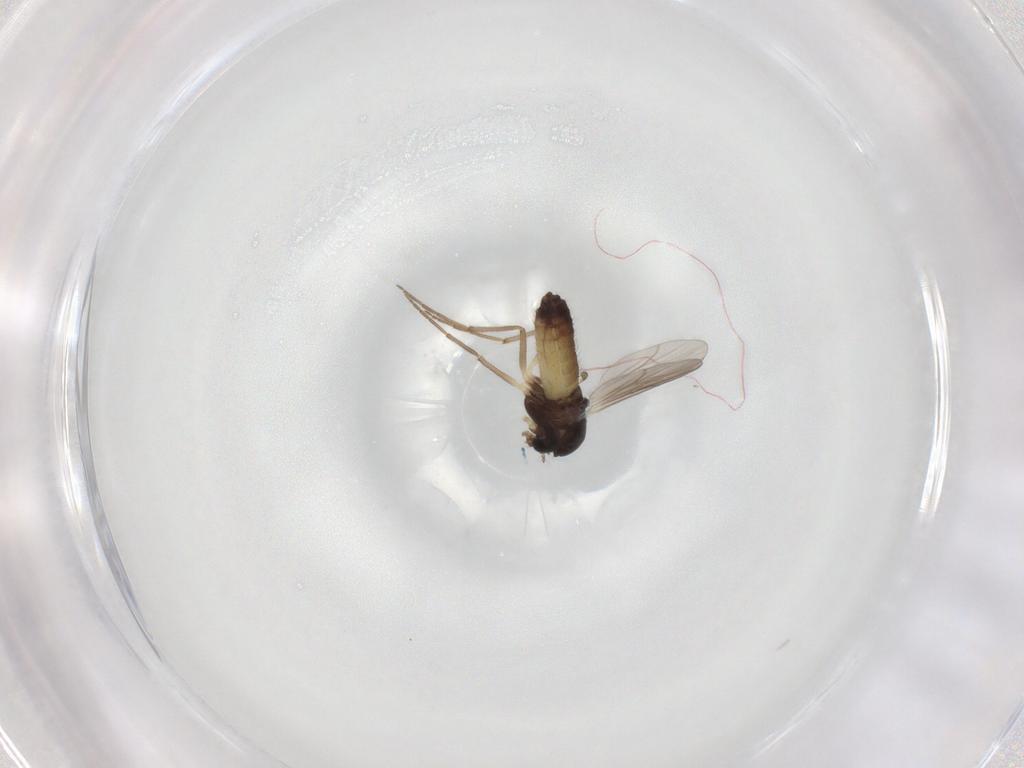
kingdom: Animalia
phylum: Arthropoda
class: Insecta
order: Diptera
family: Chironomidae
